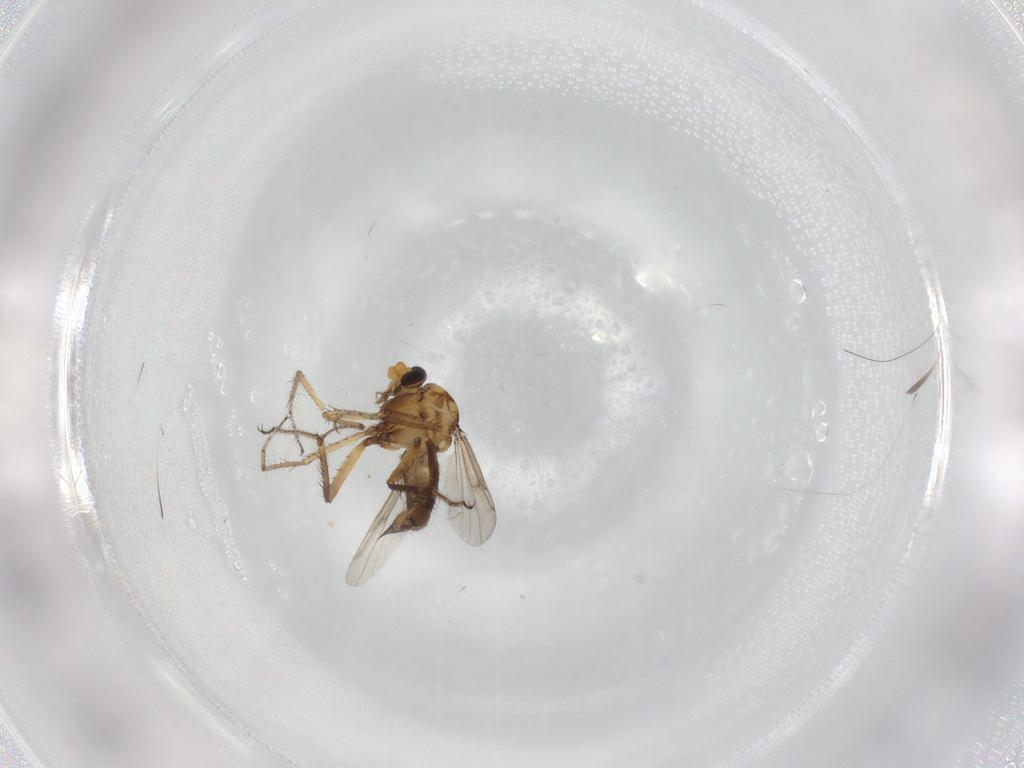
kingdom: Animalia
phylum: Arthropoda
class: Insecta
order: Diptera
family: Ceratopogonidae
